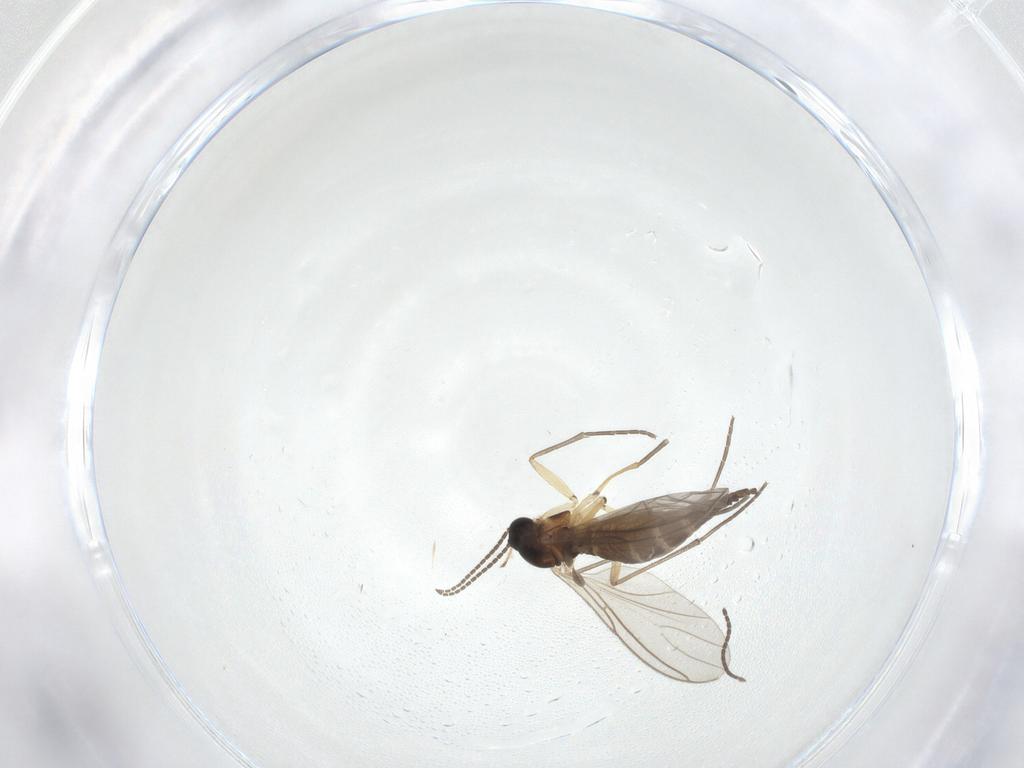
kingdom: Animalia
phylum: Arthropoda
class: Insecta
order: Diptera
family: Sciaridae
